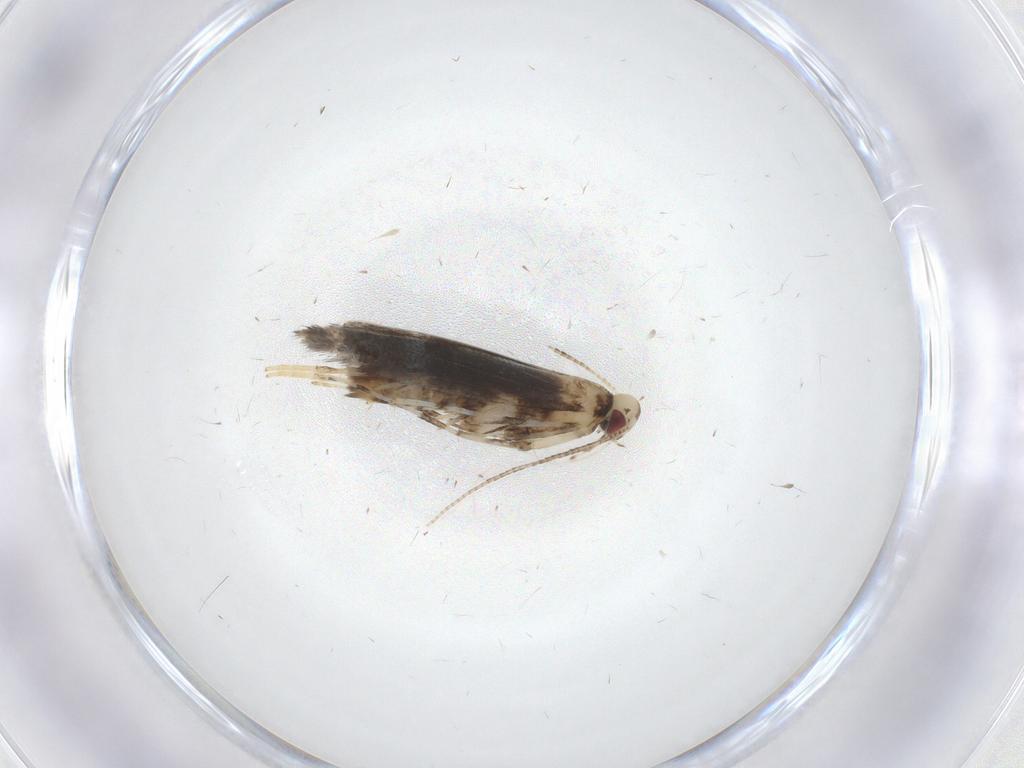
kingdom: Animalia
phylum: Arthropoda
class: Insecta
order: Lepidoptera
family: Gracillariidae
